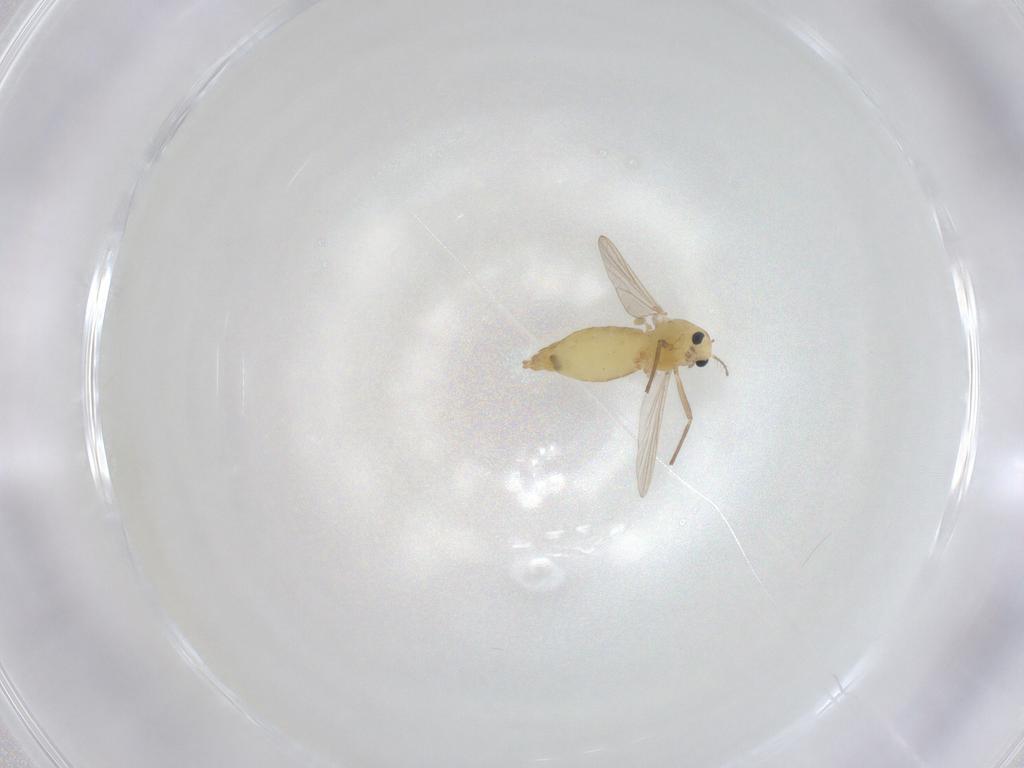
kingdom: Animalia
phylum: Arthropoda
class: Insecta
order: Diptera
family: Chironomidae
